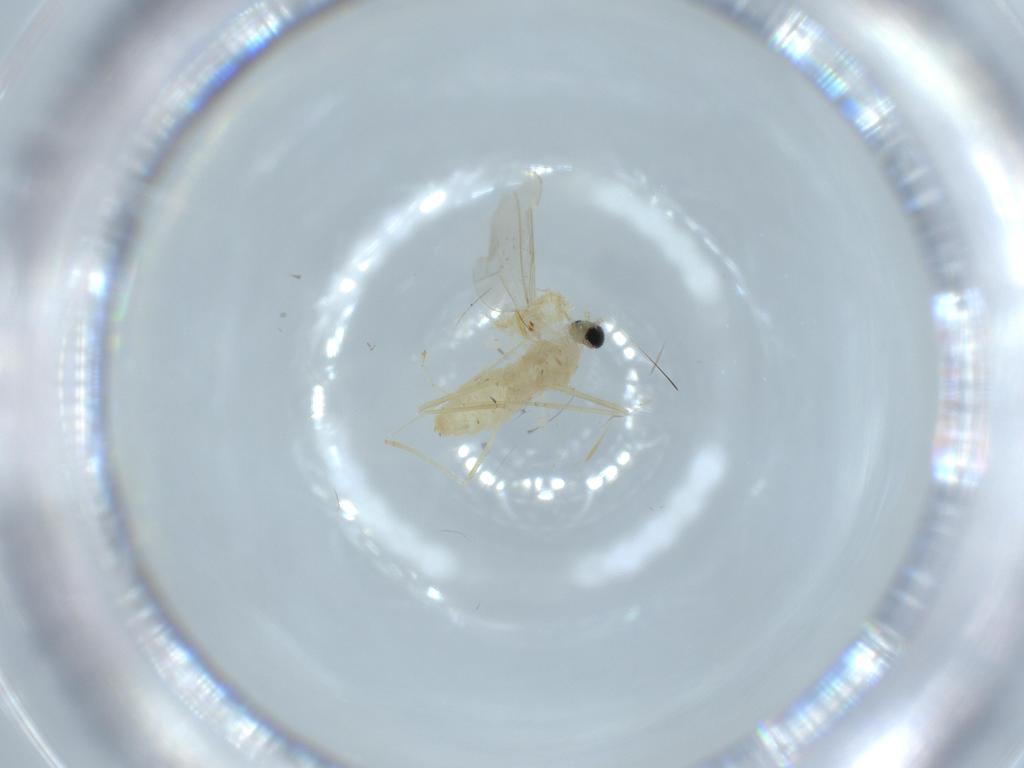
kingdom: Animalia
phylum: Arthropoda
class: Insecta
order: Diptera
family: Cecidomyiidae
